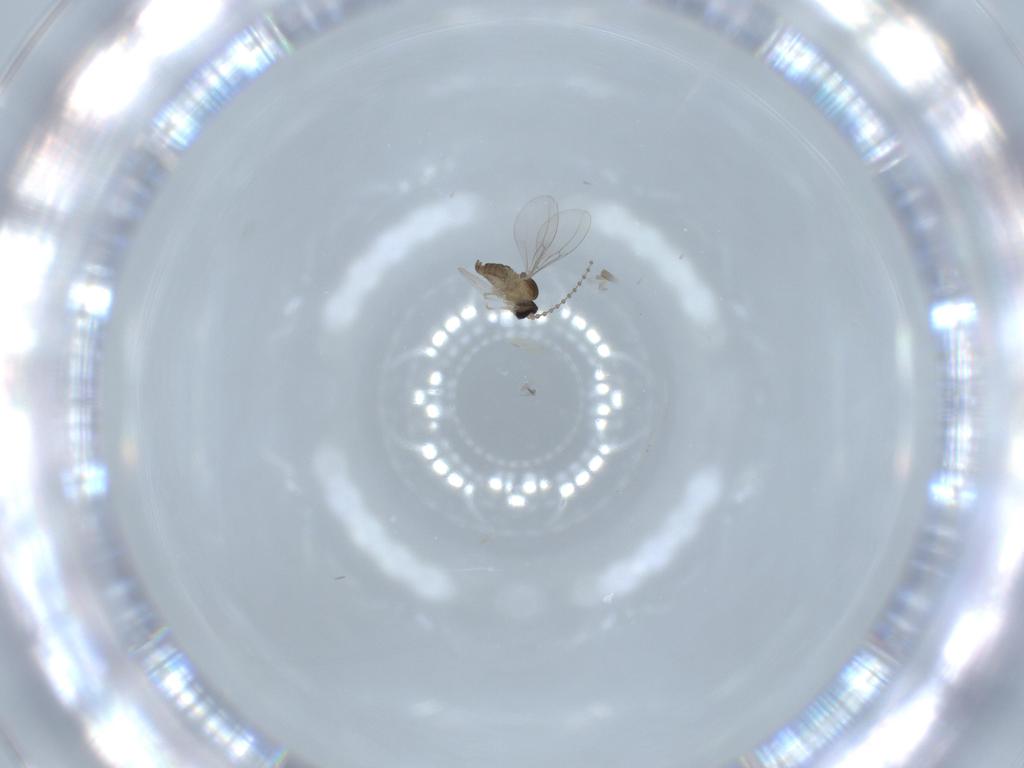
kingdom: Animalia
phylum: Arthropoda
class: Insecta
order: Diptera
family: Cecidomyiidae
